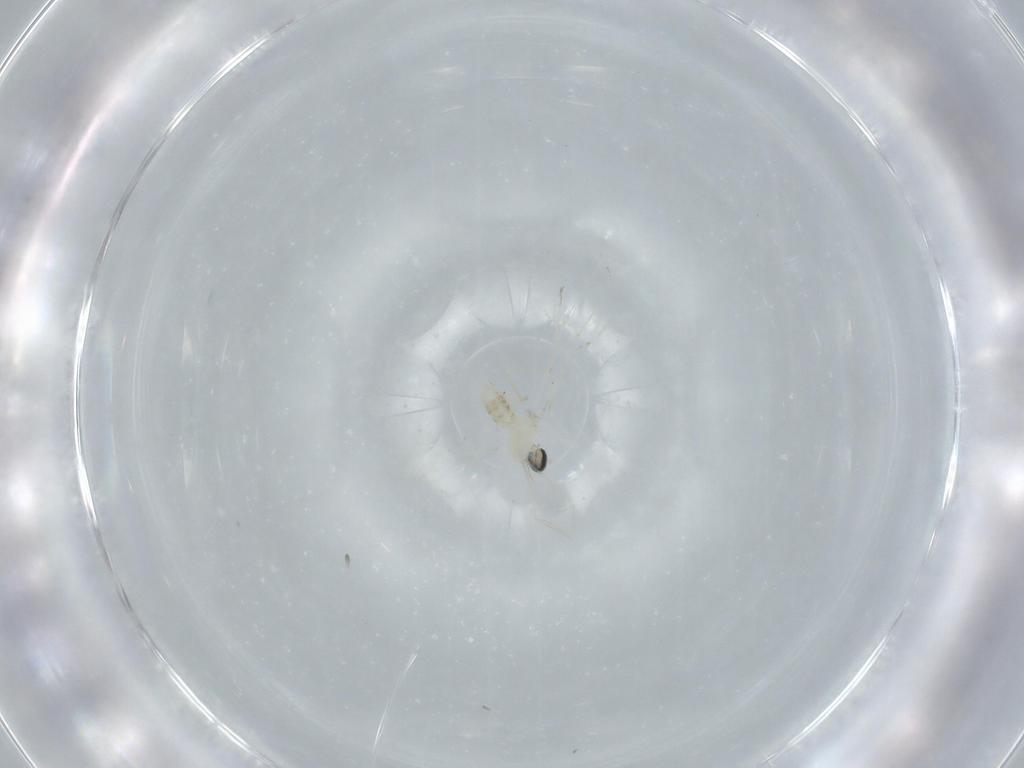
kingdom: Animalia
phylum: Arthropoda
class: Insecta
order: Diptera
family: Cecidomyiidae
